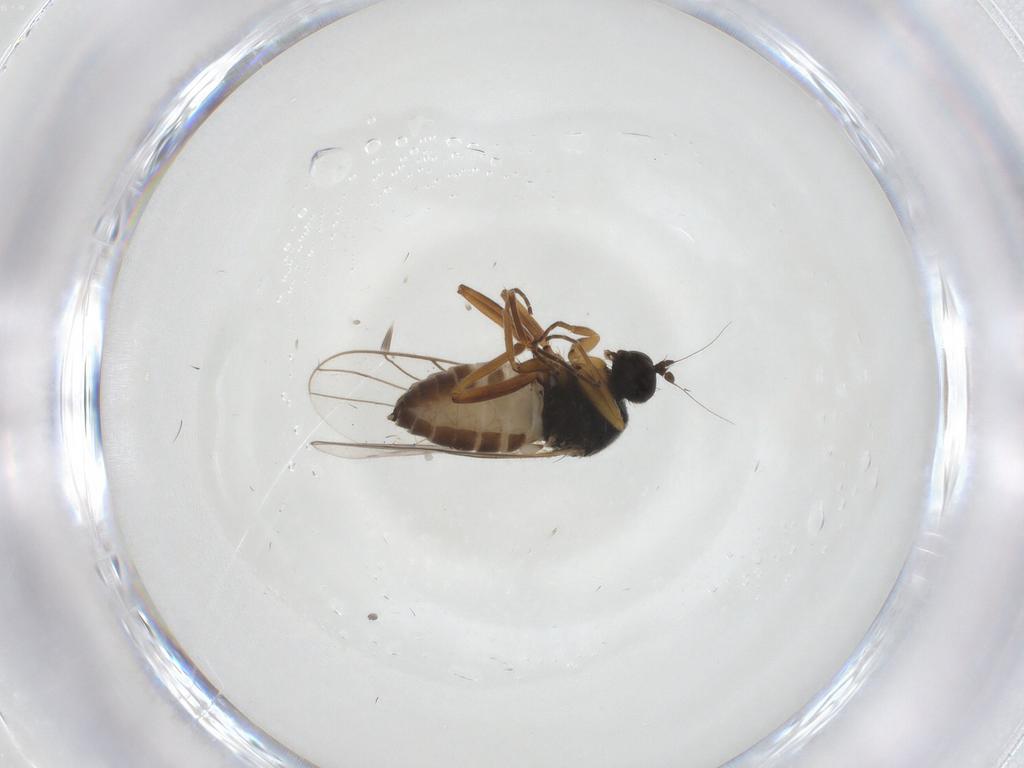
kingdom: Animalia
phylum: Arthropoda
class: Insecta
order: Diptera
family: Hybotidae
